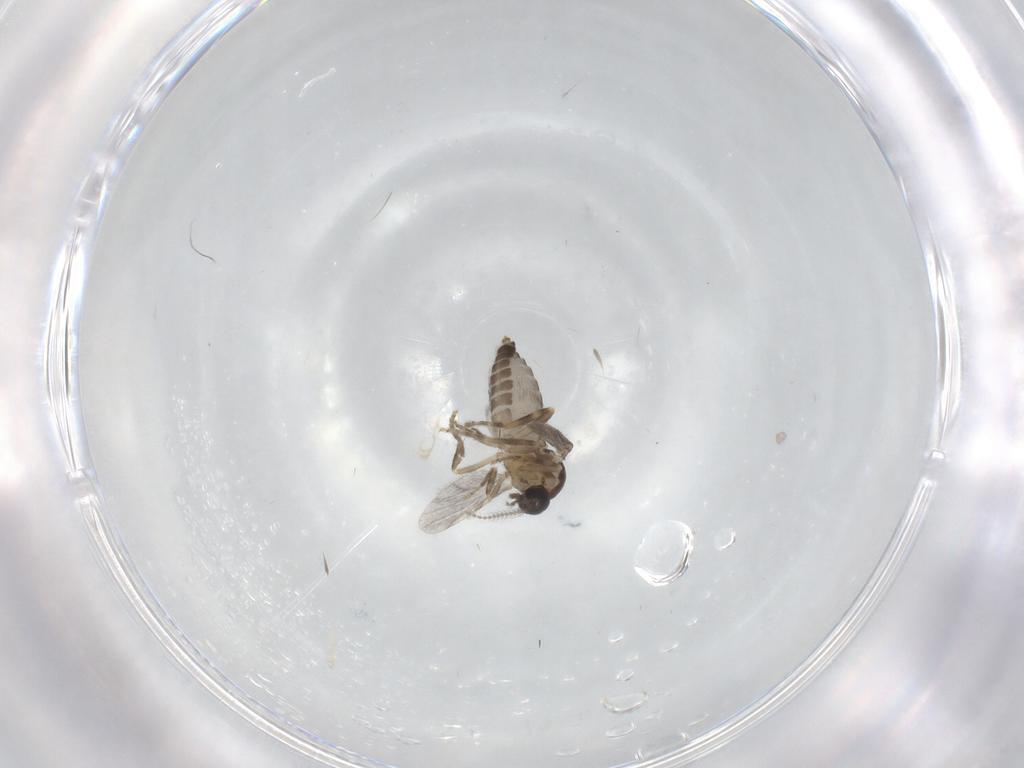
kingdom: Animalia
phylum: Arthropoda
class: Insecta
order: Diptera
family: Ceratopogonidae
